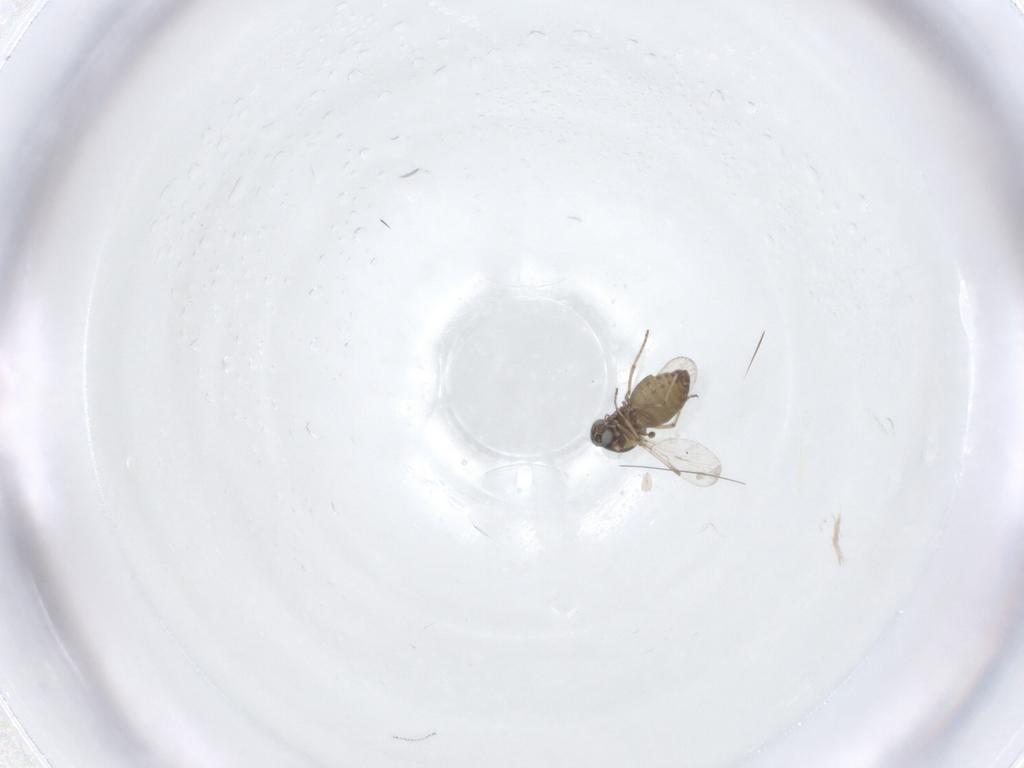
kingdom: Animalia
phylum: Arthropoda
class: Insecta
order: Diptera
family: Ceratopogonidae
